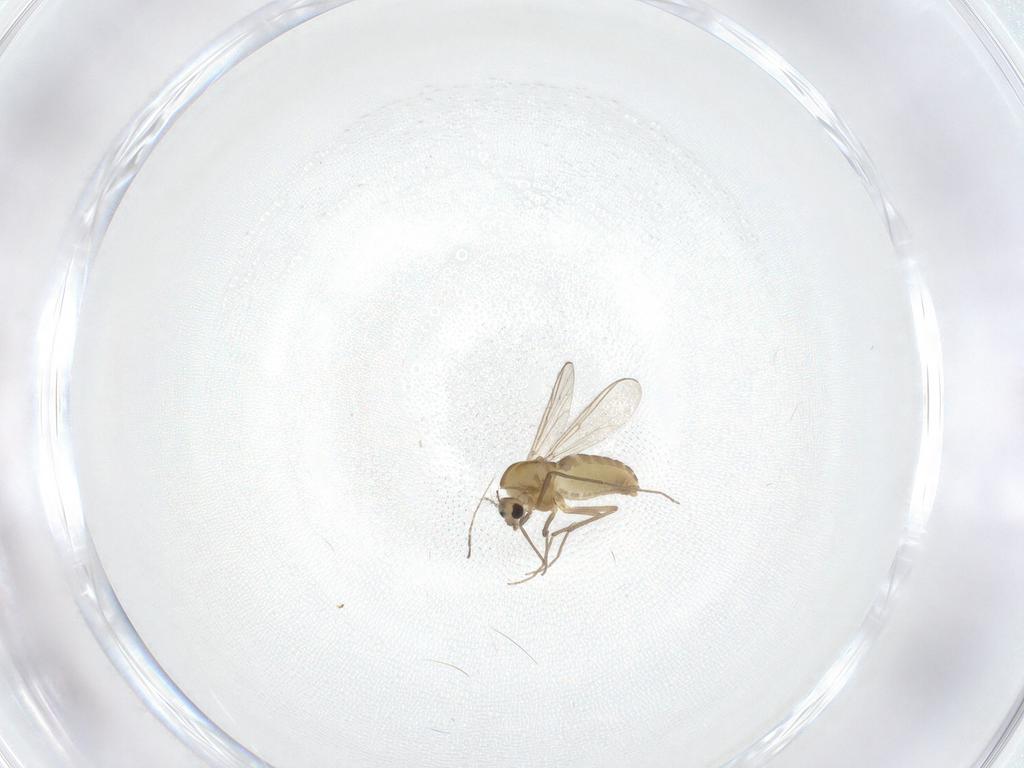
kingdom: Animalia
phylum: Arthropoda
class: Insecta
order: Diptera
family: Chironomidae
